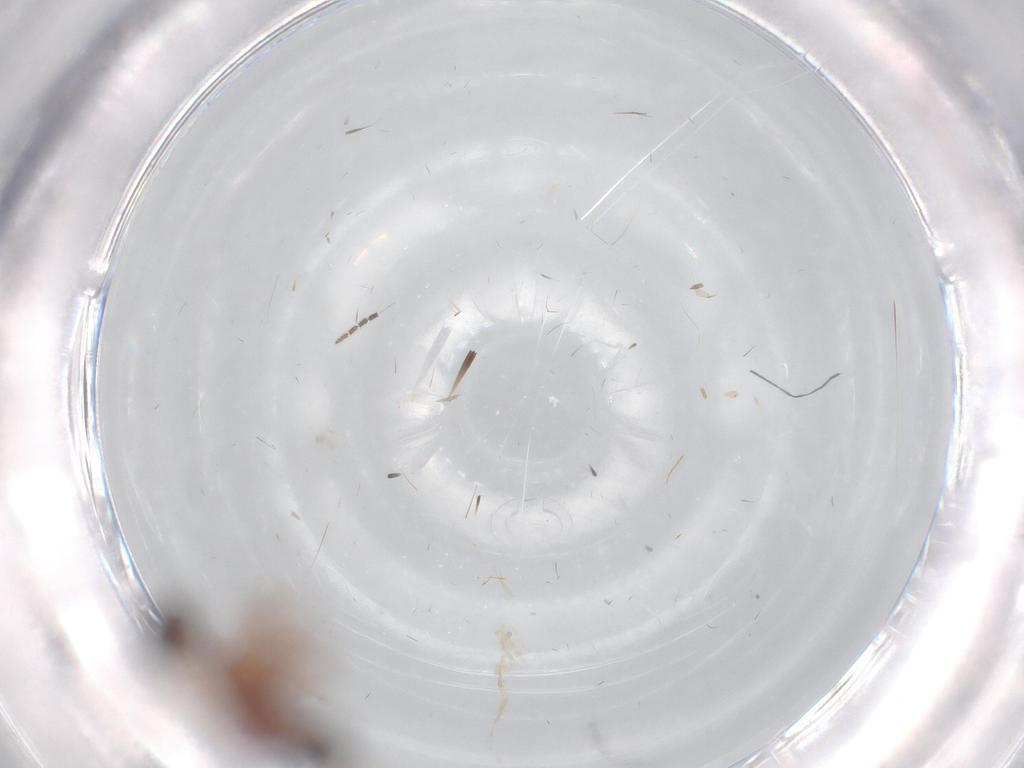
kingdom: Animalia
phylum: Arthropoda
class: Insecta
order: Diptera
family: Limoniidae
